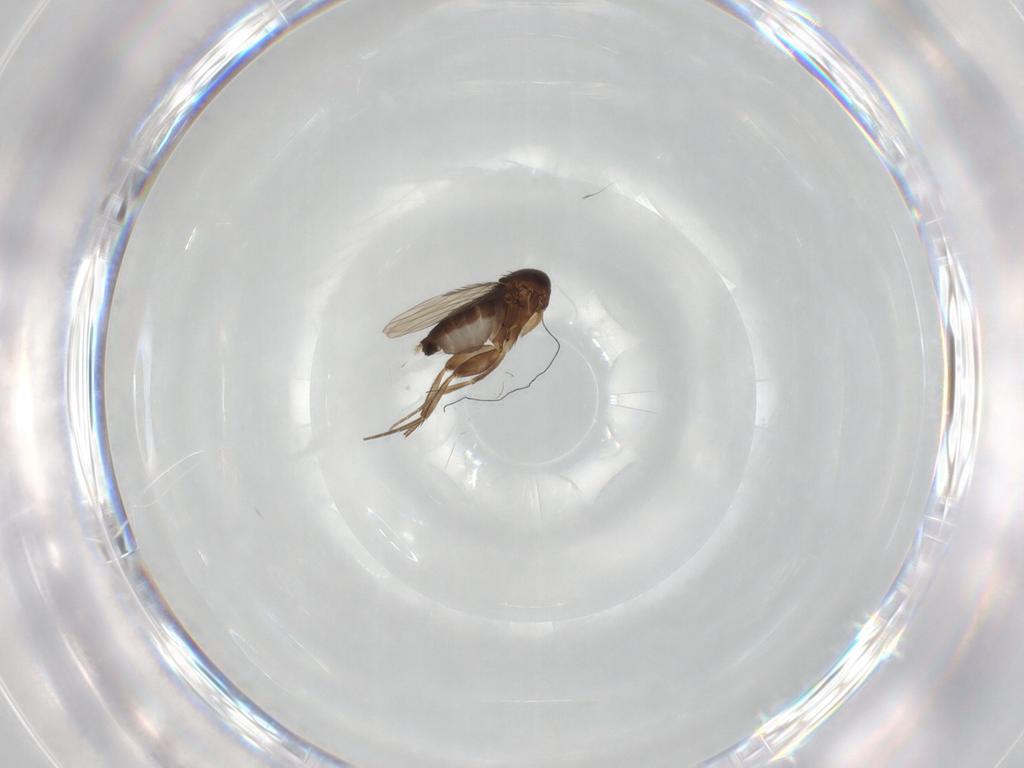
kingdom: Animalia
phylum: Arthropoda
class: Insecta
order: Diptera
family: Phoridae
